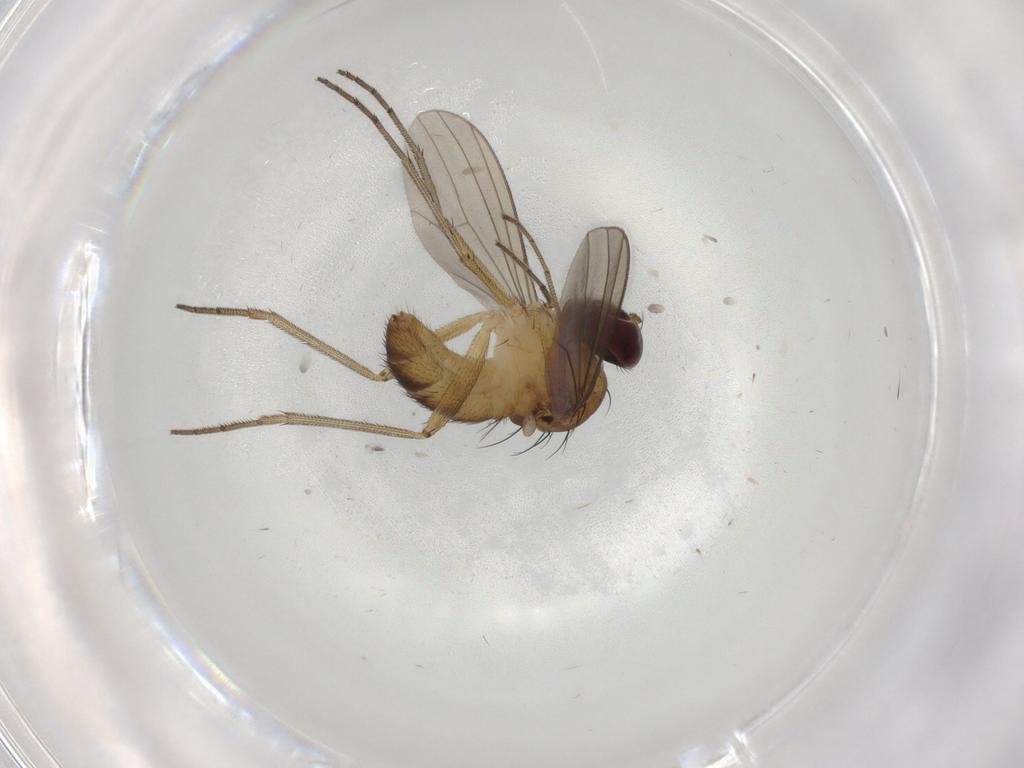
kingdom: Animalia
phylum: Arthropoda
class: Insecta
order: Diptera
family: Dolichopodidae
